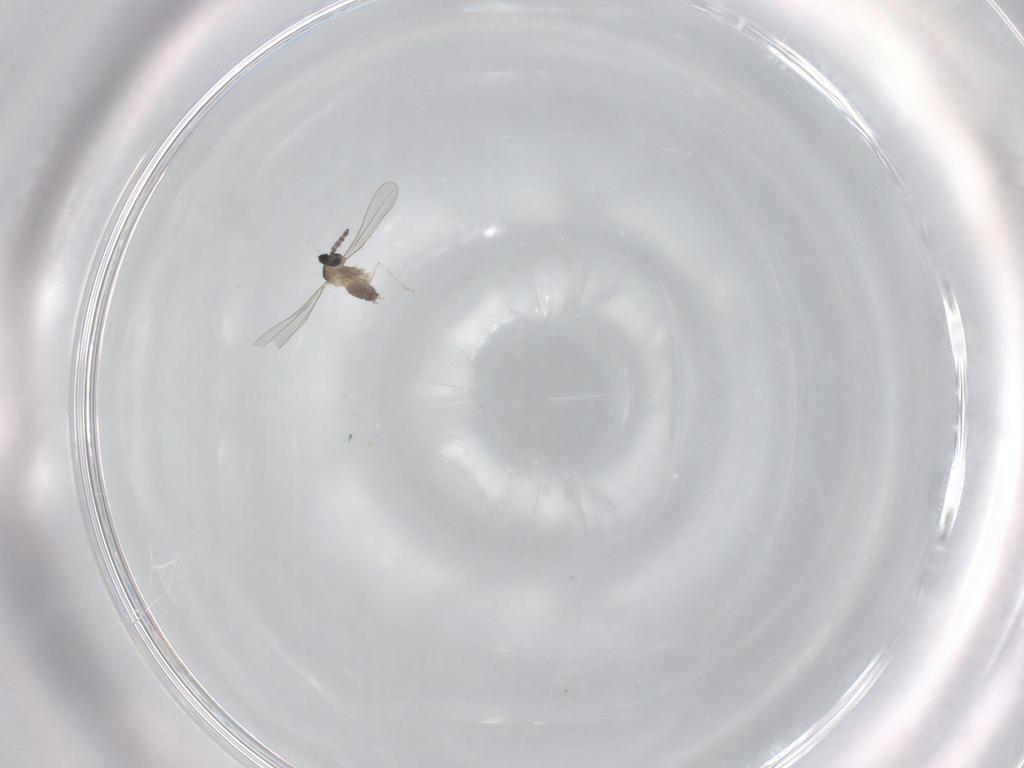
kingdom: Animalia
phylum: Arthropoda
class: Insecta
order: Diptera
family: Cecidomyiidae
